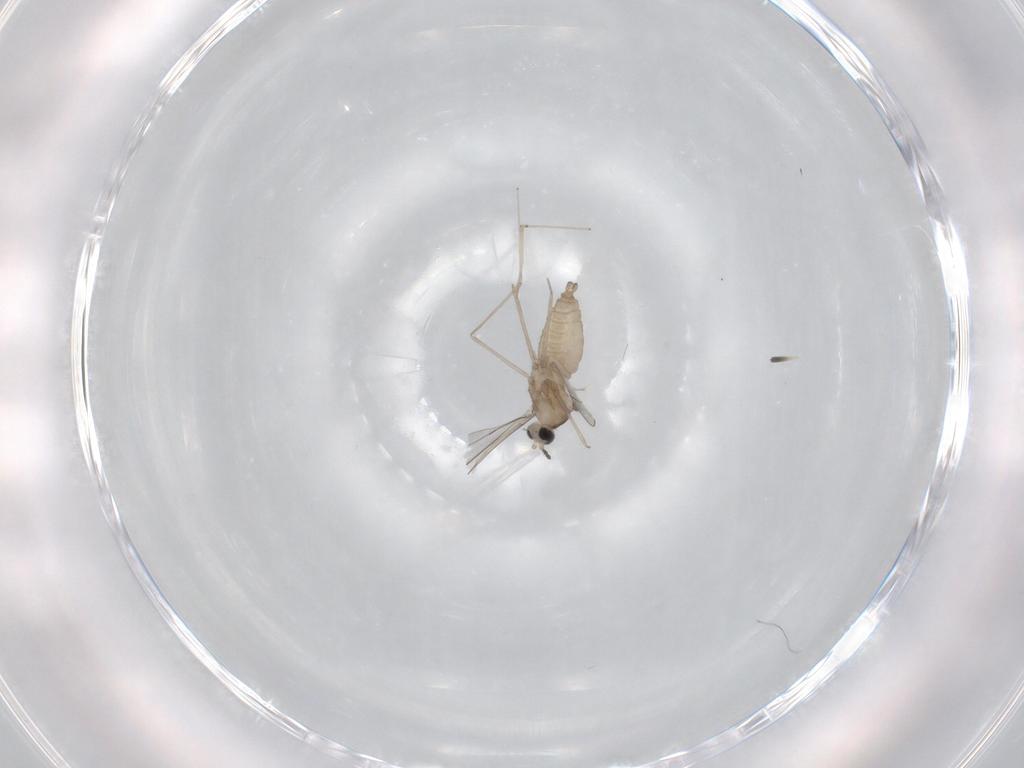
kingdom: Animalia
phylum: Arthropoda
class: Insecta
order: Diptera
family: Cecidomyiidae
